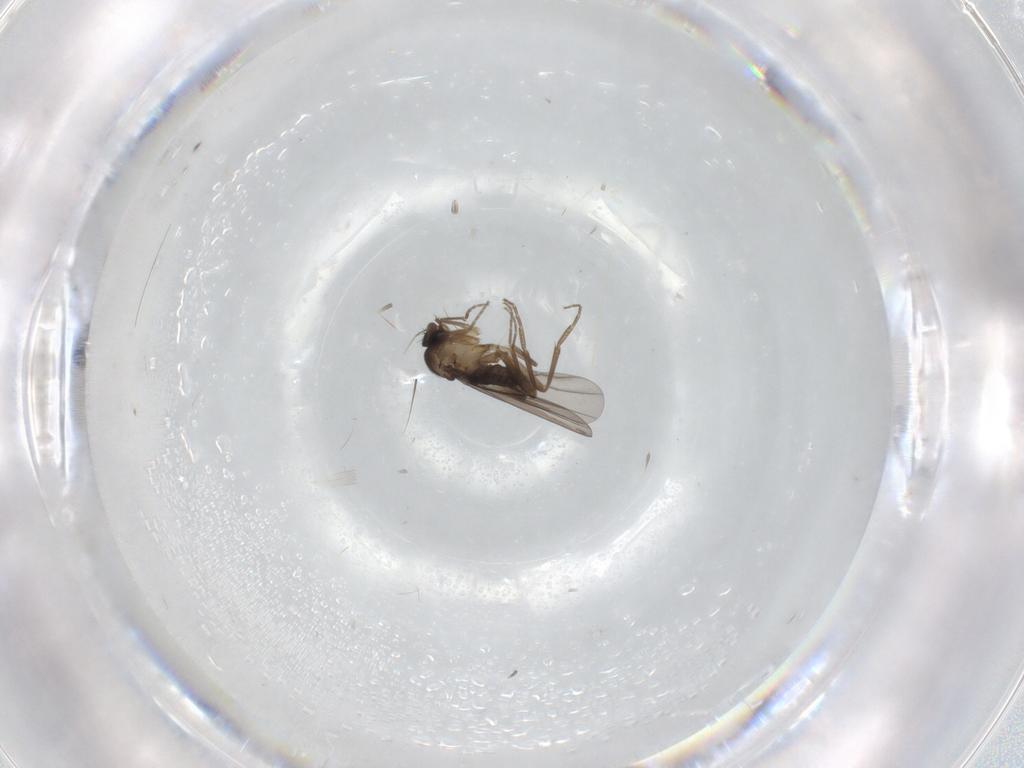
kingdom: Animalia
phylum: Arthropoda
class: Insecta
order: Diptera
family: Phoridae
